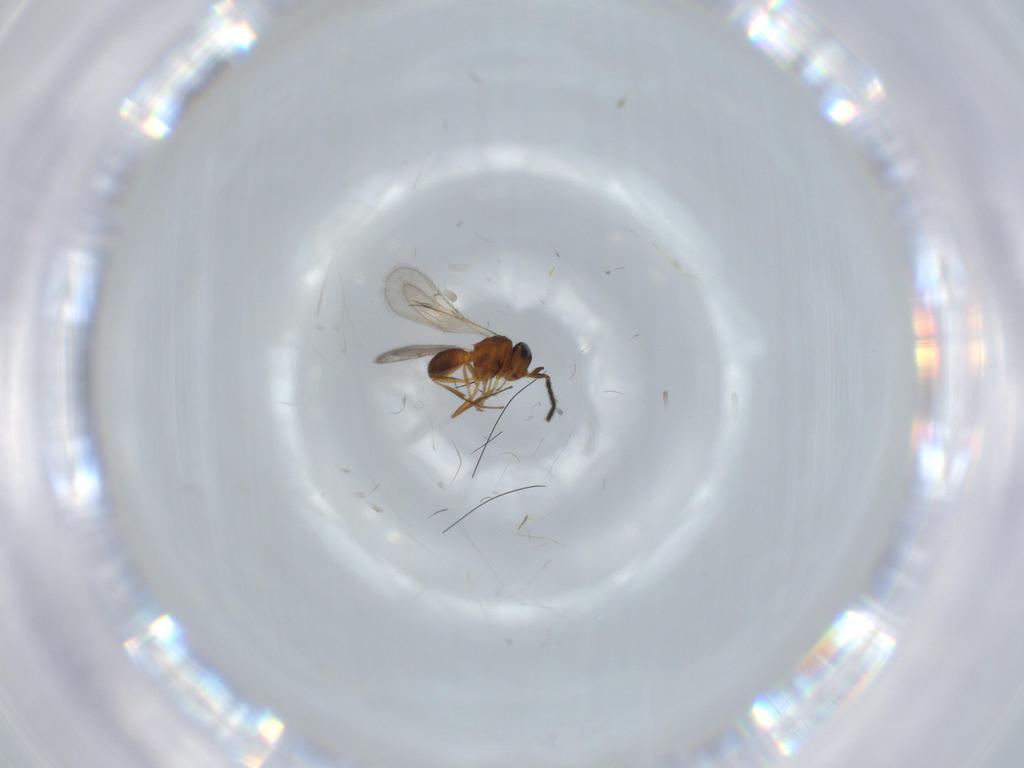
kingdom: Animalia
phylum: Arthropoda
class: Insecta
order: Hymenoptera
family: Scelionidae
